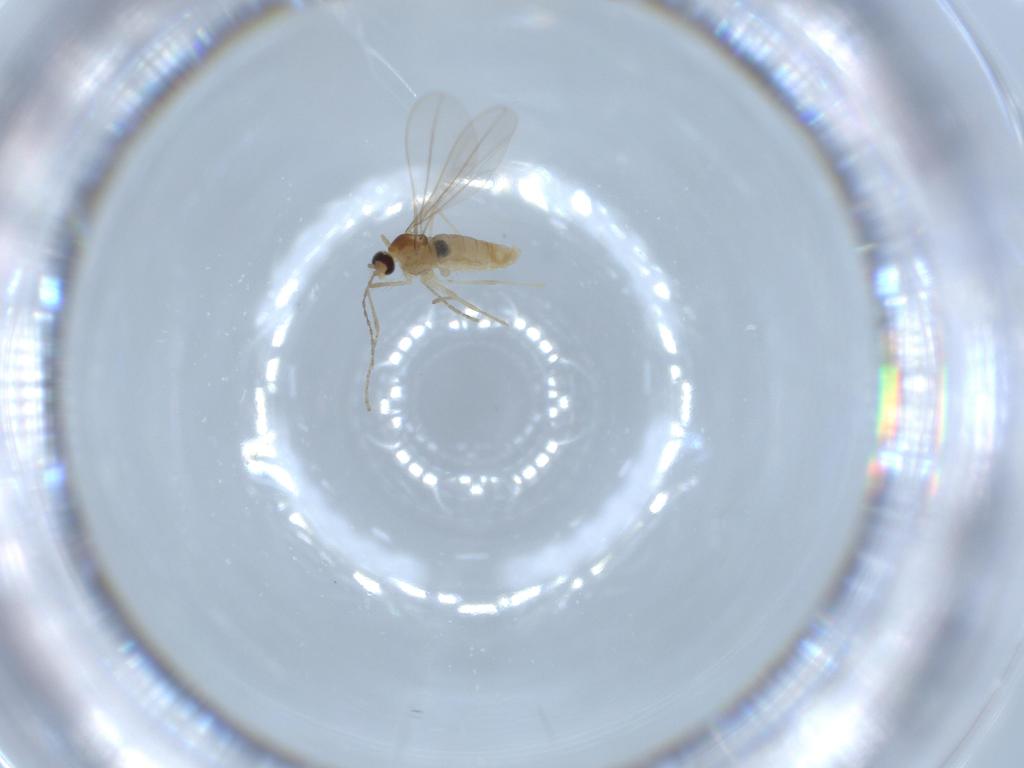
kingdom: Animalia
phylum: Arthropoda
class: Insecta
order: Diptera
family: Cecidomyiidae
